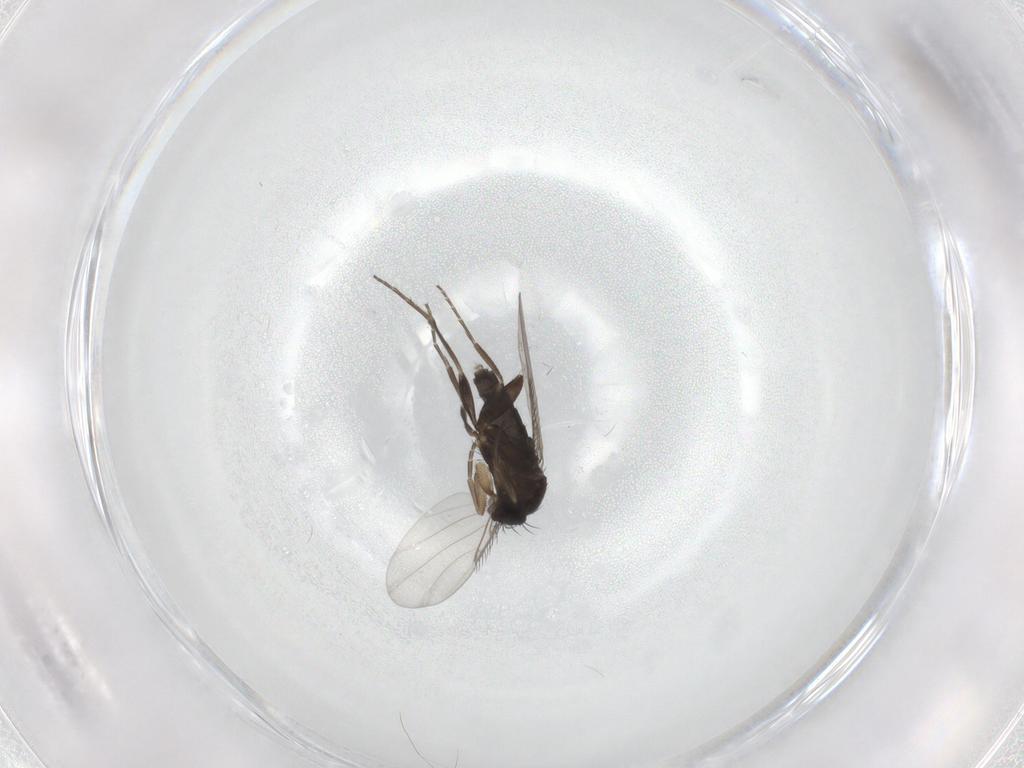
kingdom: Animalia
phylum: Arthropoda
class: Insecta
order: Diptera
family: Phoridae
